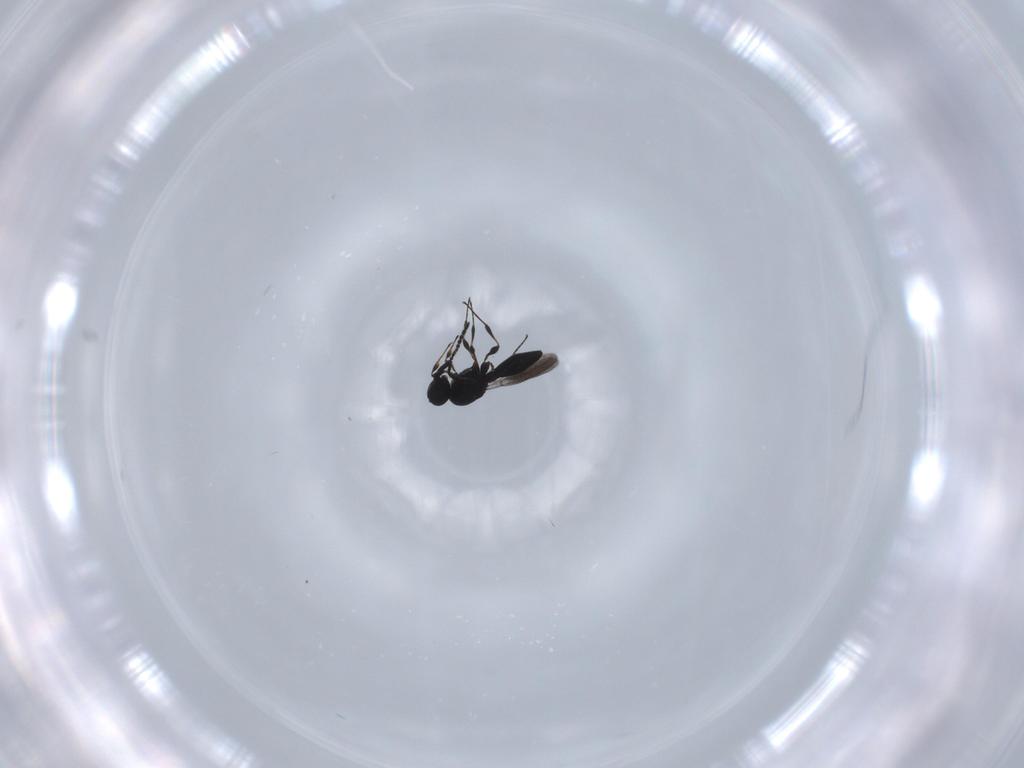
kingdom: Animalia
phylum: Arthropoda
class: Insecta
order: Hymenoptera
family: Platygastridae
